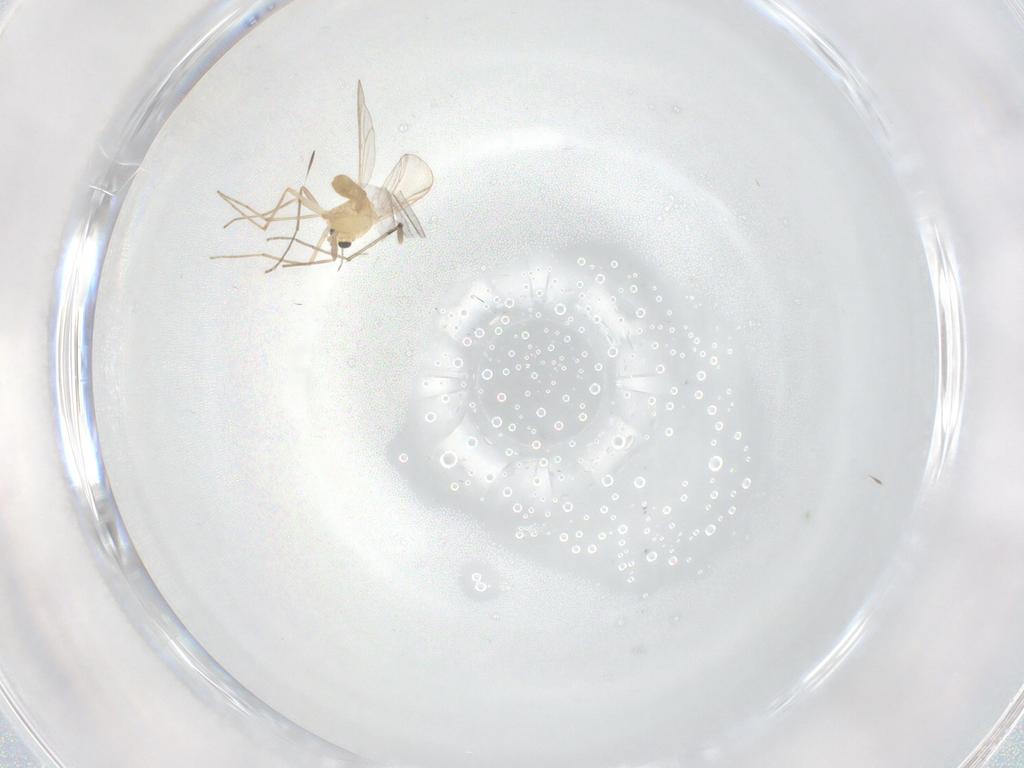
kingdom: Animalia
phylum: Arthropoda
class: Insecta
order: Diptera
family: Chironomidae
